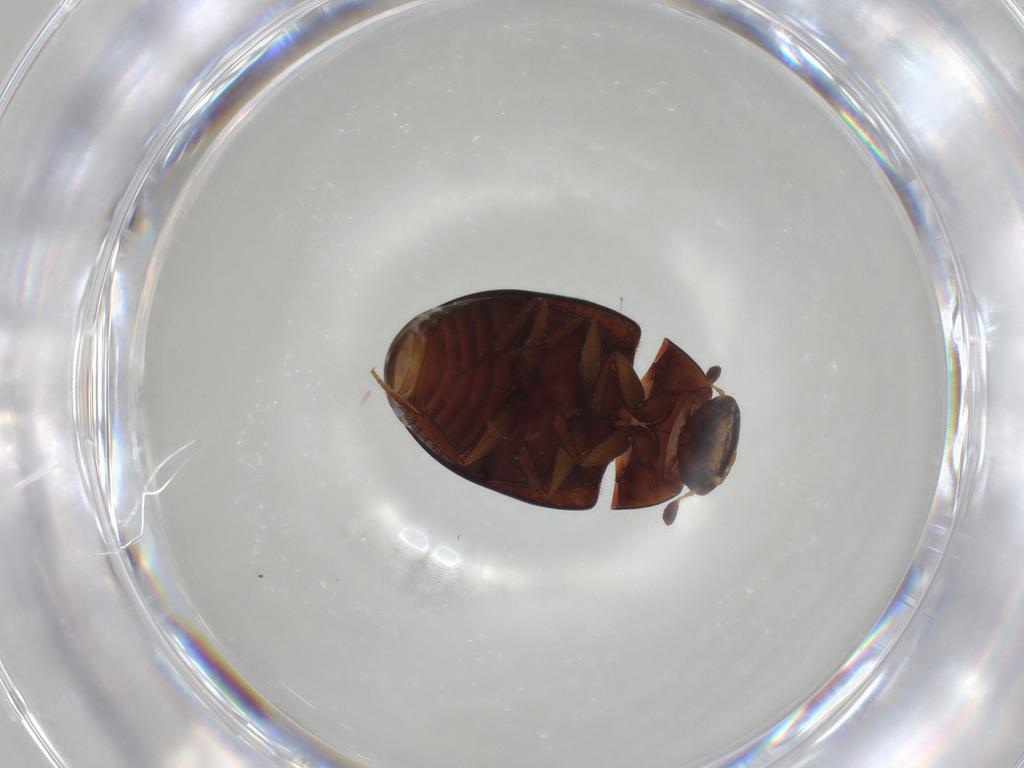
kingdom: Animalia
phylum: Arthropoda
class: Insecta
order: Coleoptera
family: Hydrophilidae
